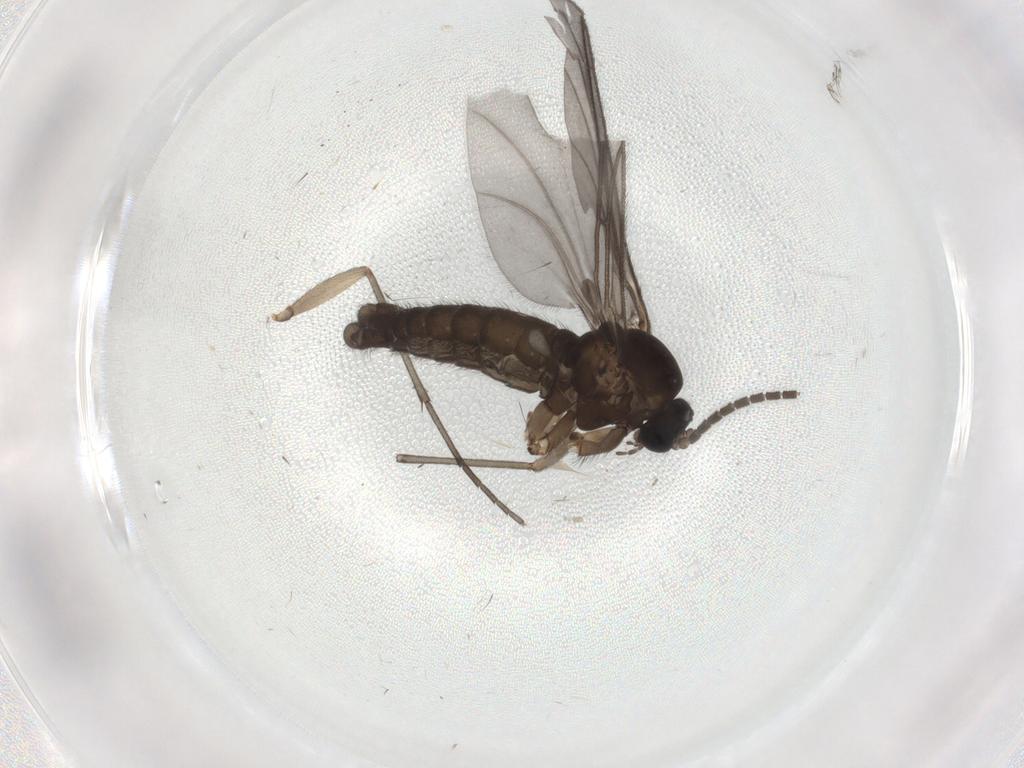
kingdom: Animalia
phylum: Arthropoda
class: Insecta
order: Diptera
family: Sciaridae
